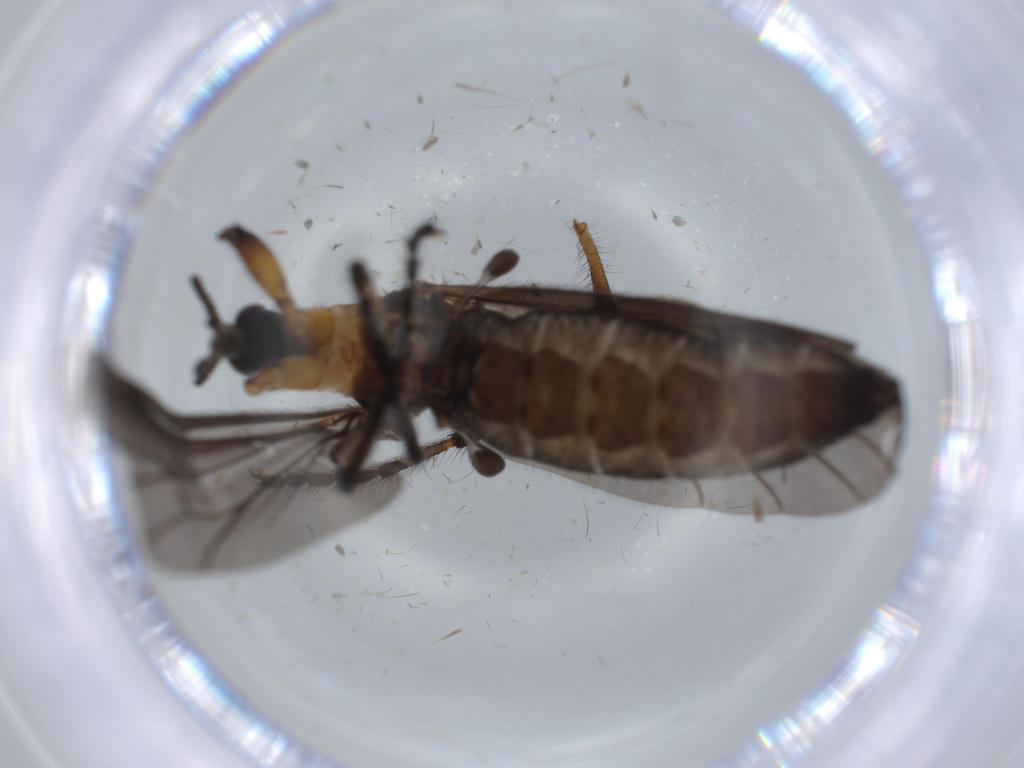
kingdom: Animalia
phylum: Arthropoda
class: Insecta
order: Diptera
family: Bibionidae
